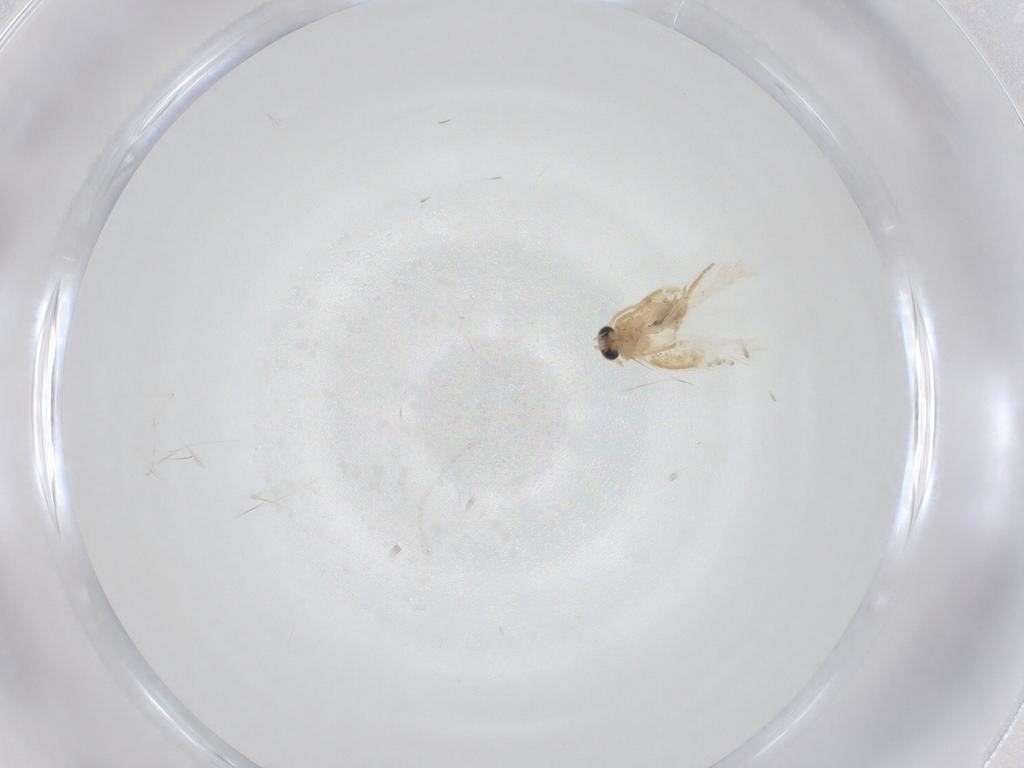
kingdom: Animalia
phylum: Arthropoda
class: Insecta
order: Lepidoptera
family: Nepticulidae
